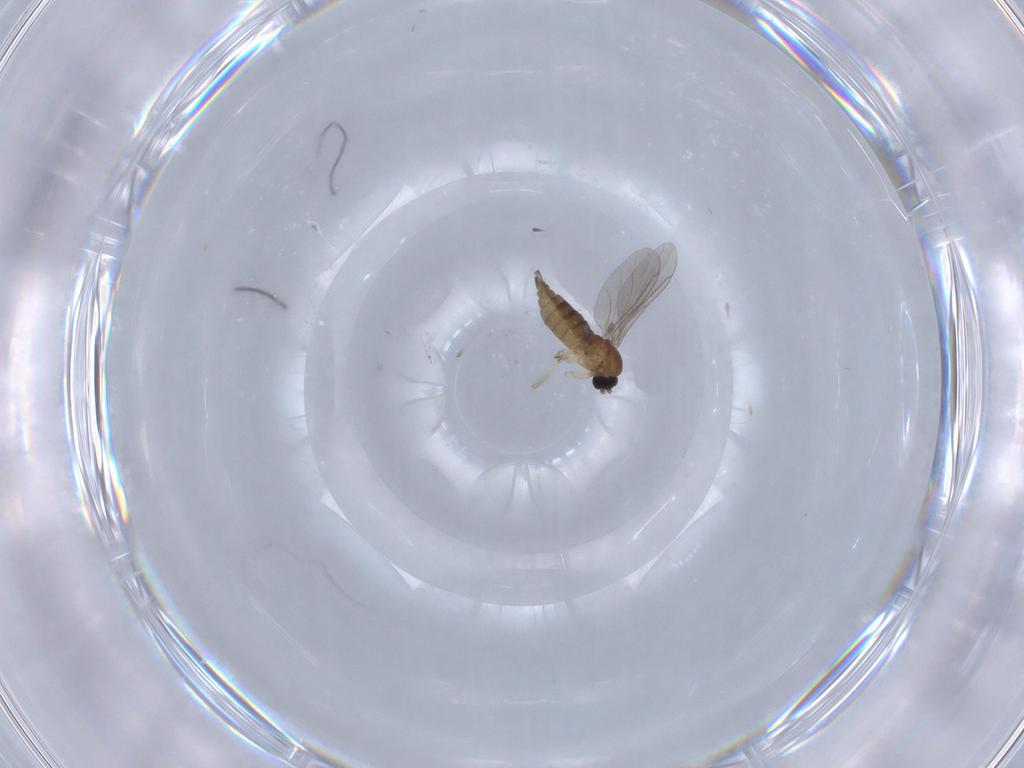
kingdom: Animalia
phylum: Arthropoda
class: Insecta
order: Diptera
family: Sciaridae
